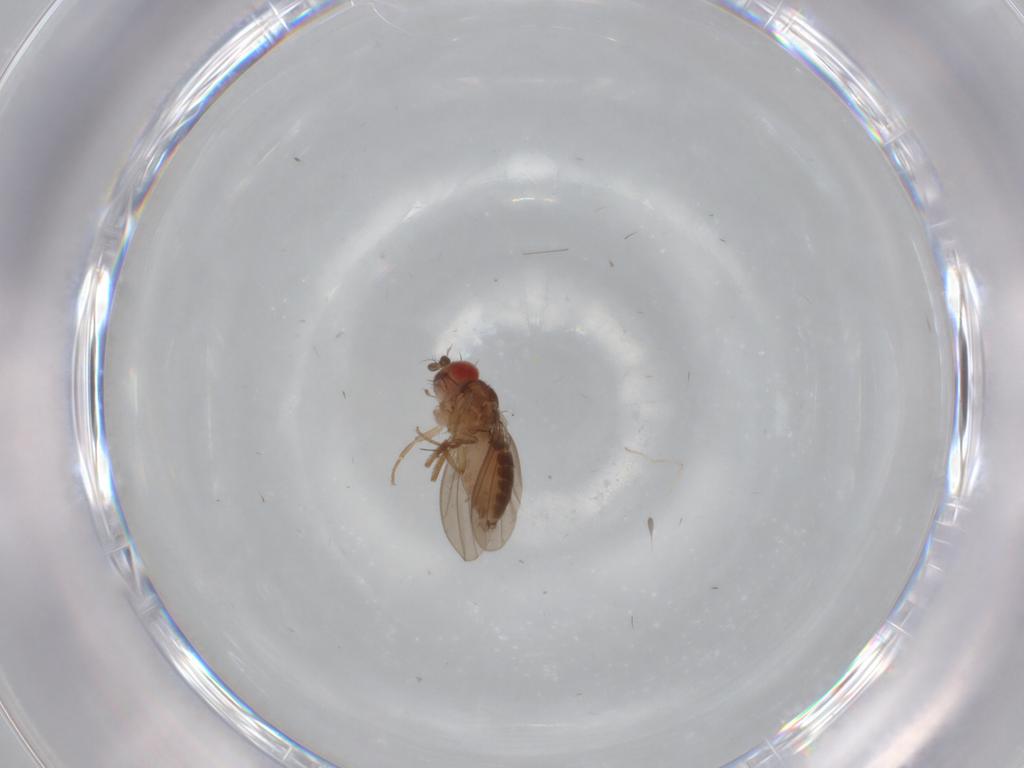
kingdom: Animalia
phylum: Arthropoda
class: Insecta
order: Diptera
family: Drosophilidae
